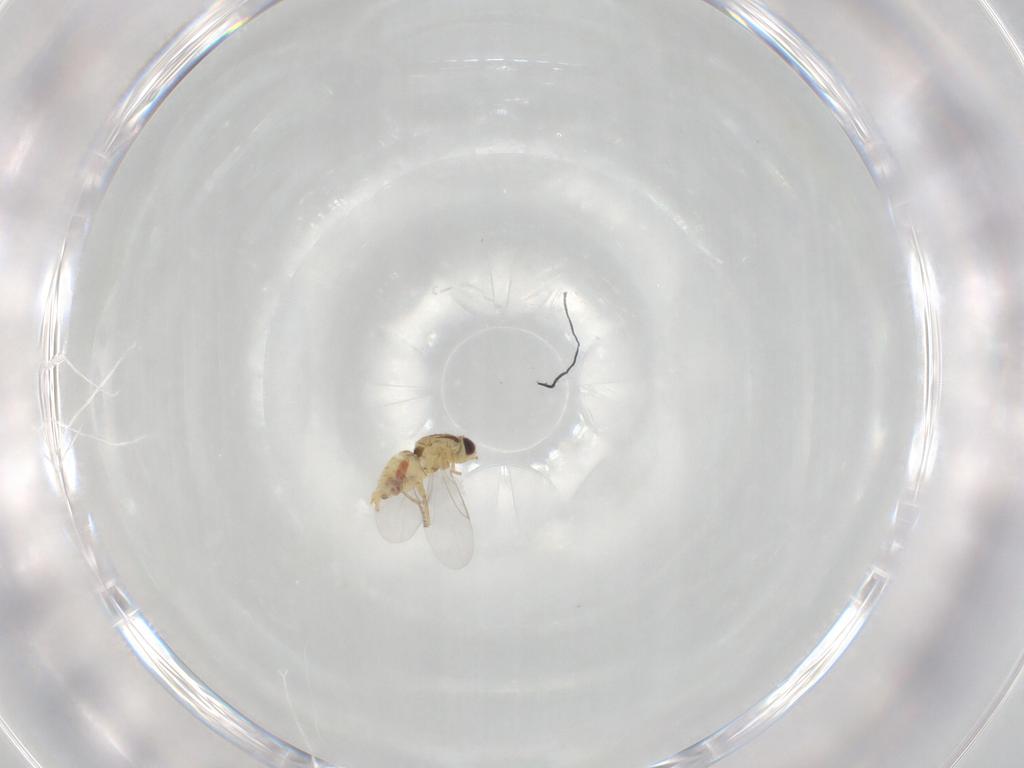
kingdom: Animalia
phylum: Arthropoda
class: Insecta
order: Diptera
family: Agromyzidae
